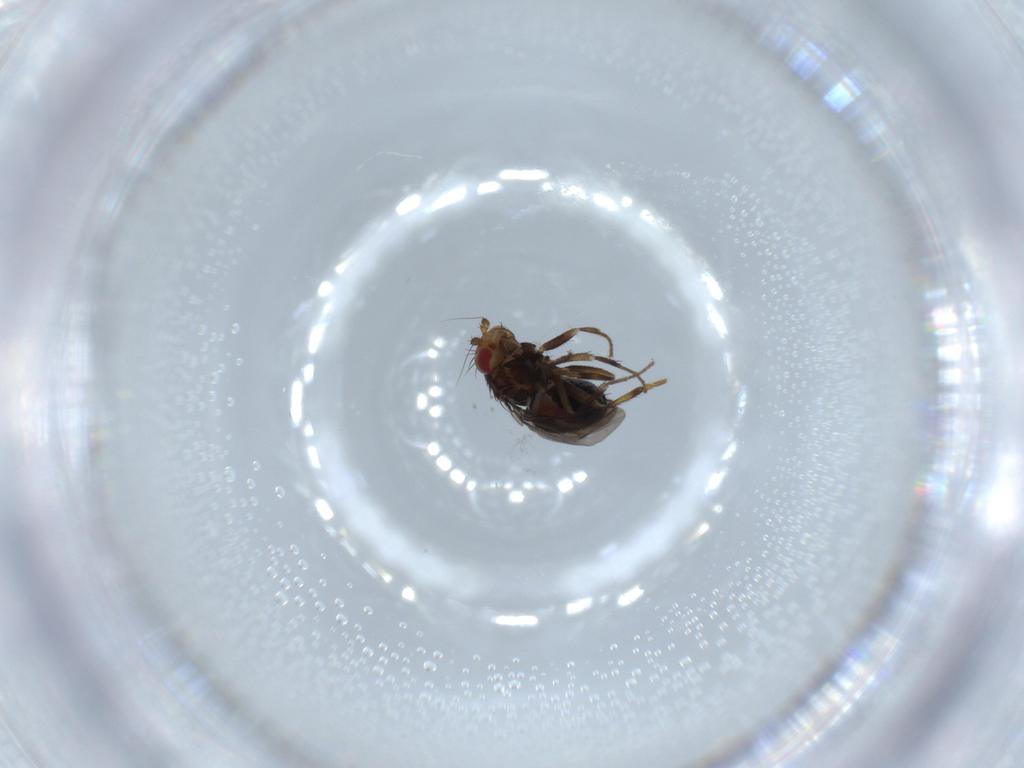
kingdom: Animalia
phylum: Arthropoda
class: Insecta
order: Diptera
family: Sphaeroceridae
